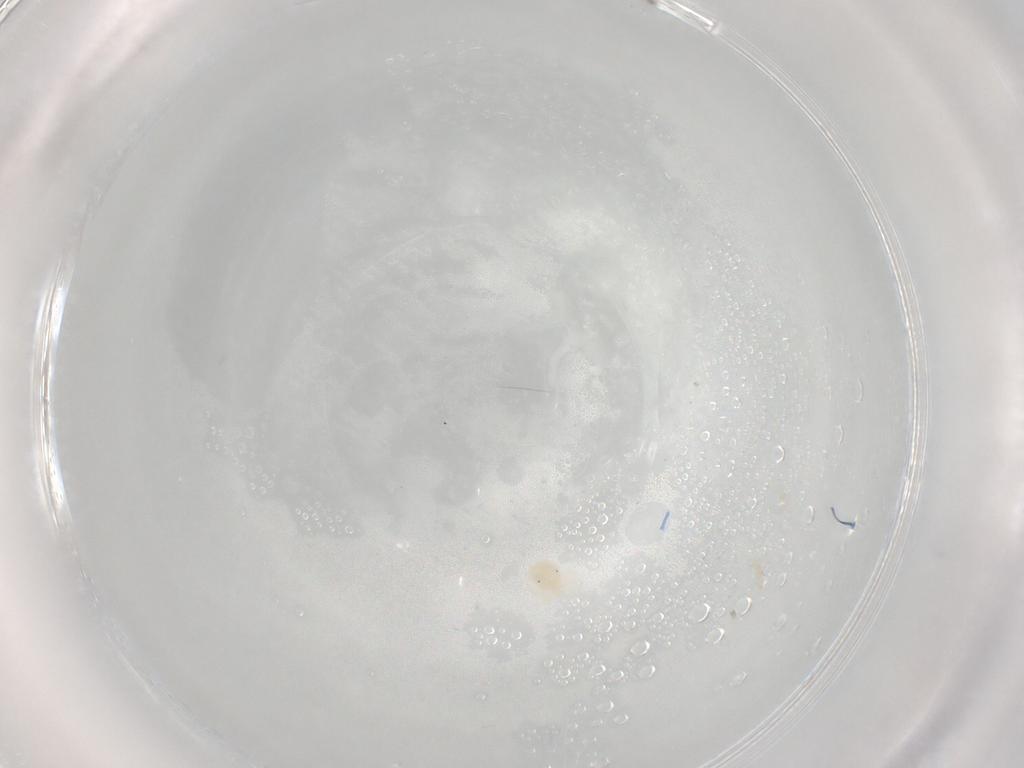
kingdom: Animalia
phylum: Arthropoda
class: Arachnida
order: Trombidiformes
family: Anystidae
